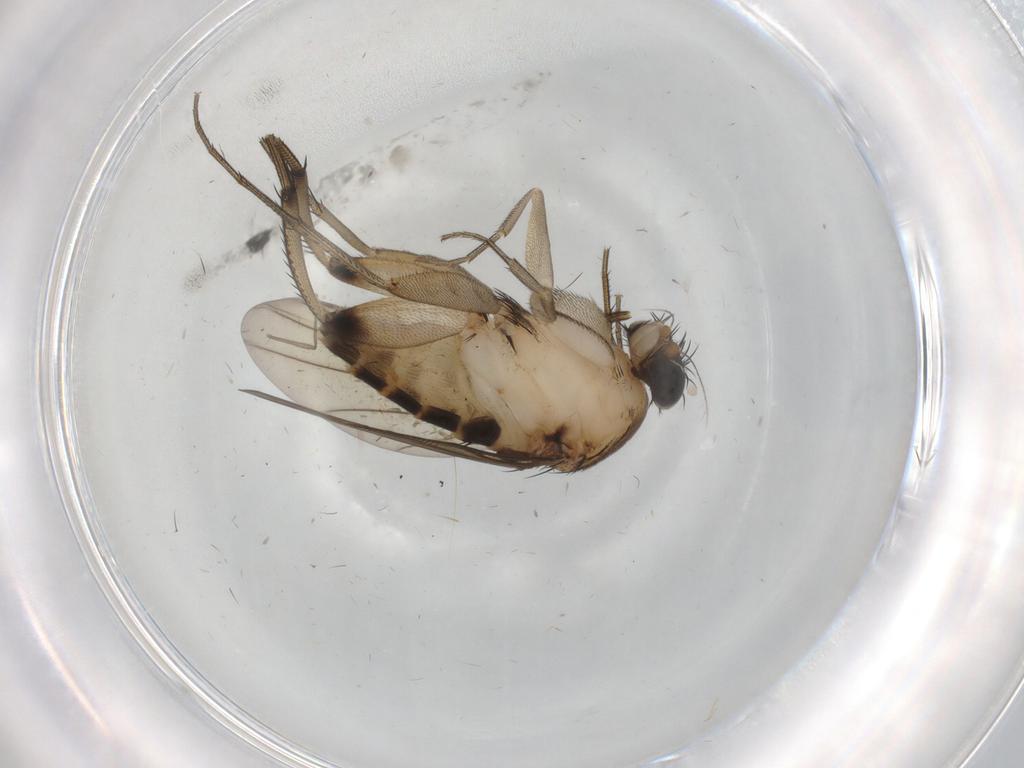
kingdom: Animalia
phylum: Arthropoda
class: Insecta
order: Diptera
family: Phoridae
